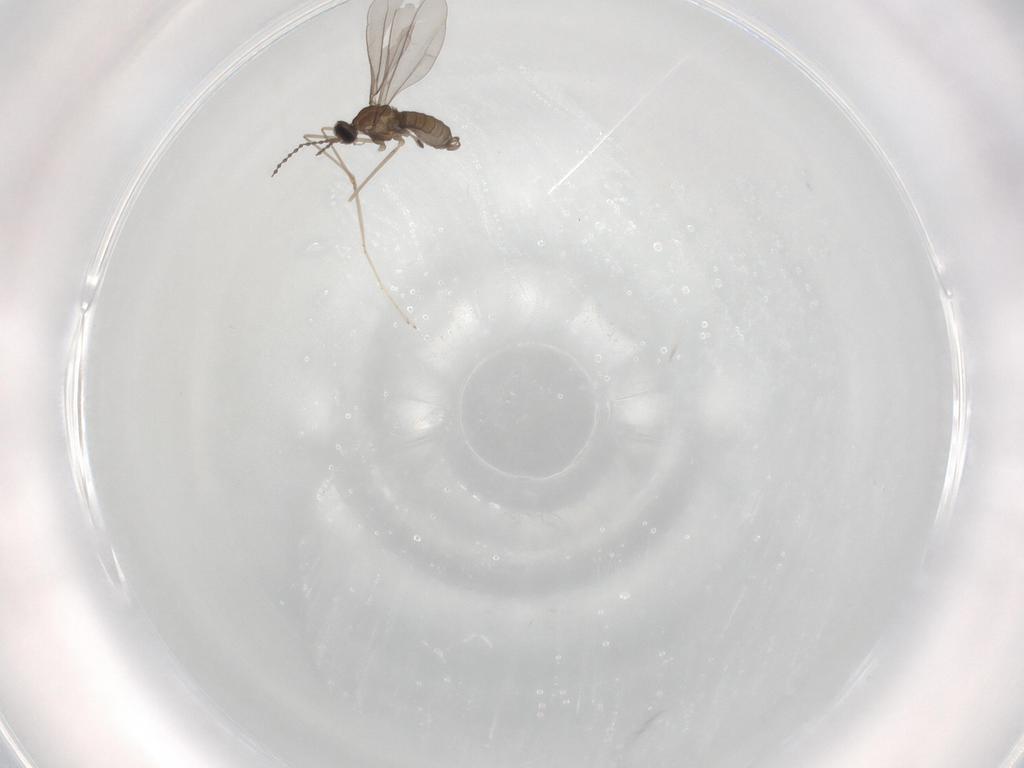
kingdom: Animalia
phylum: Arthropoda
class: Insecta
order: Diptera
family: Cecidomyiidae
